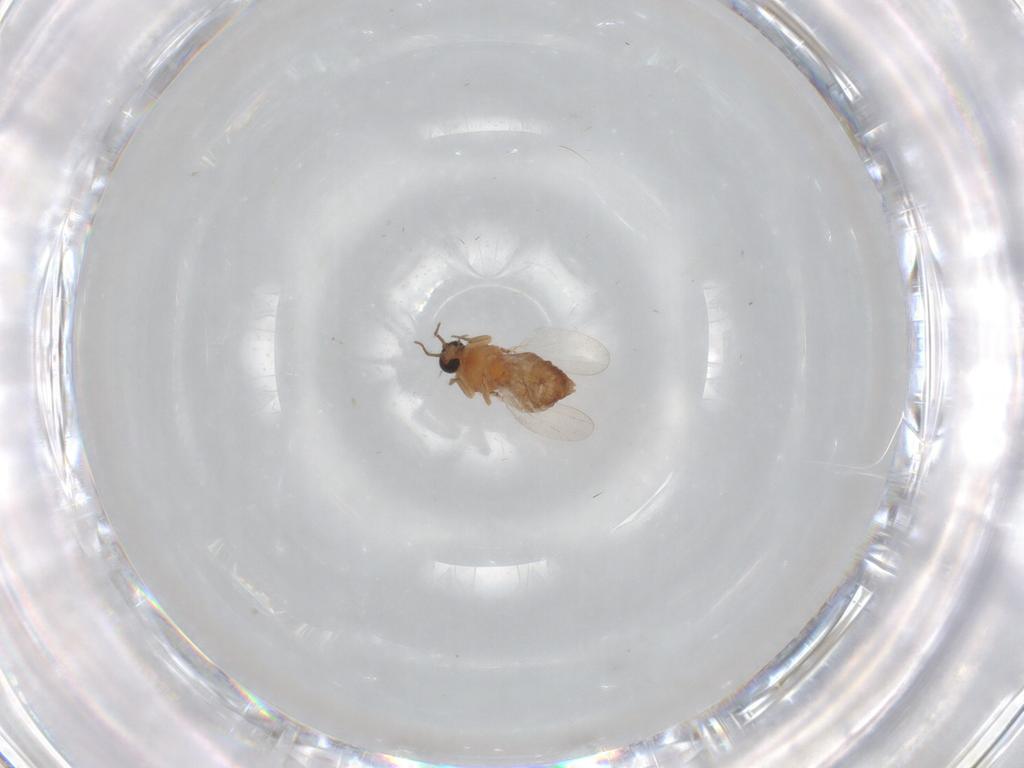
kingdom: Animalia
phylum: Arthropoda
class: Insecta
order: Diptera
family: Ceratopogonidae
